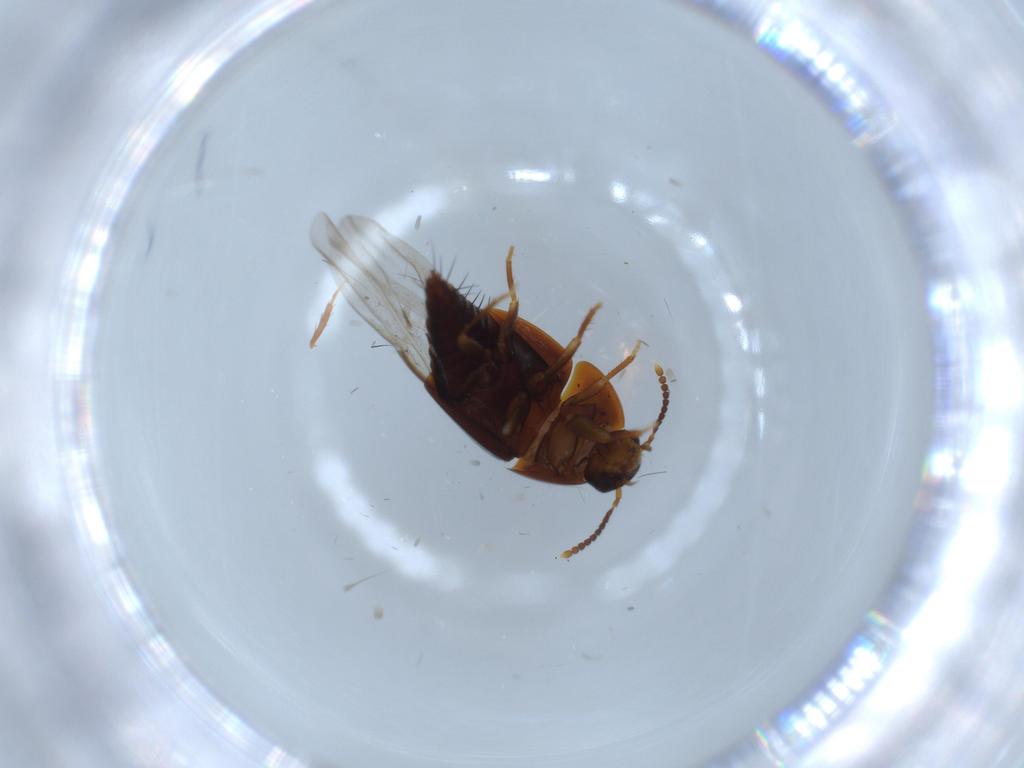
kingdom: Animalia
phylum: Arthropoda
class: Insecta
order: Coleoptera
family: Staphylinidae
